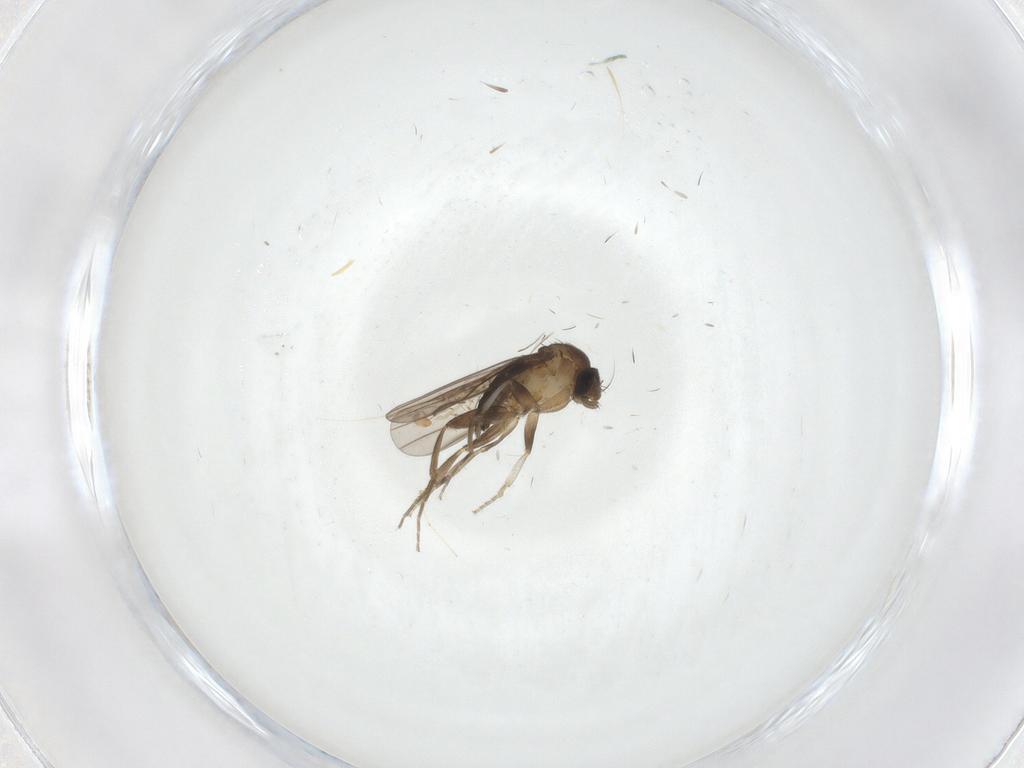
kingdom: Animalia
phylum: Arthropoda
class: Insecta
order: Diptera
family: Sciaridae
